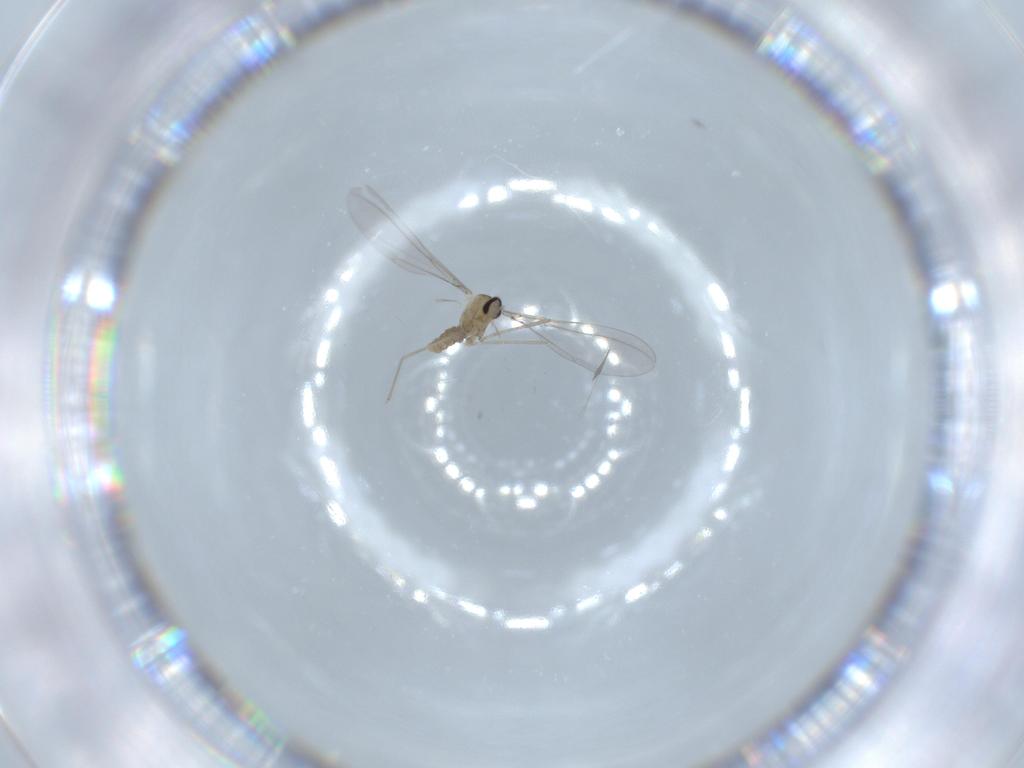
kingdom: Animalia
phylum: Arthropoda
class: Insecta
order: Diptera
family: Cecidomyiidae
